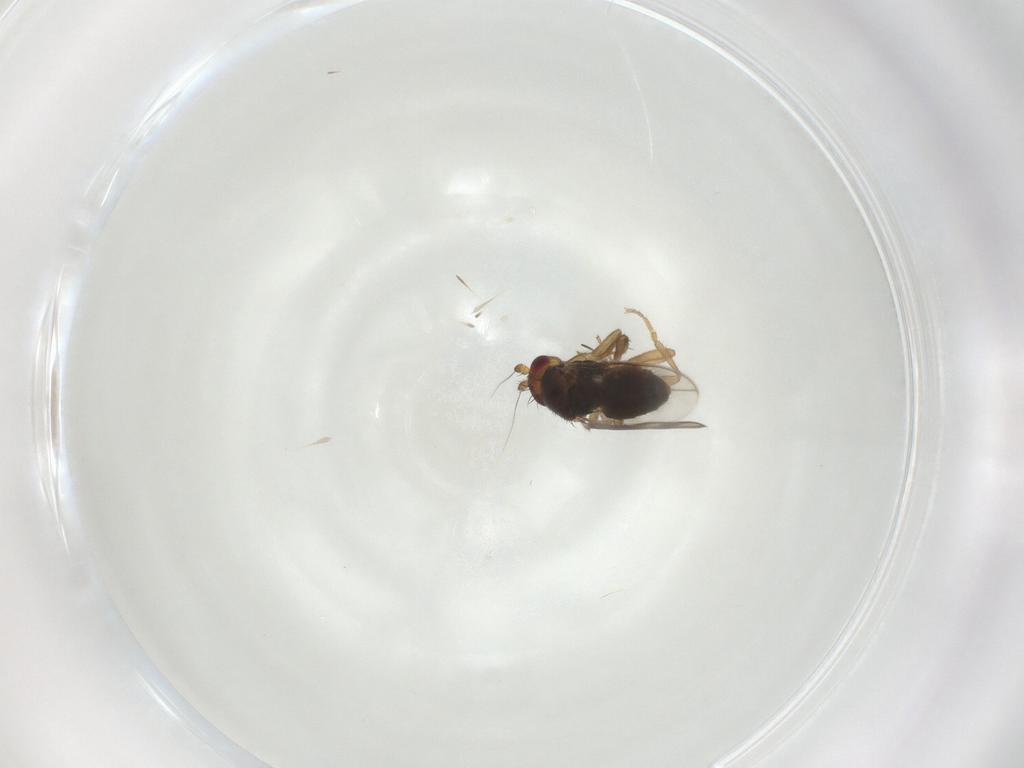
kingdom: Animalia
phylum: Arthropoda
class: Insecta
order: Diptera
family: Sphaeroceridae
